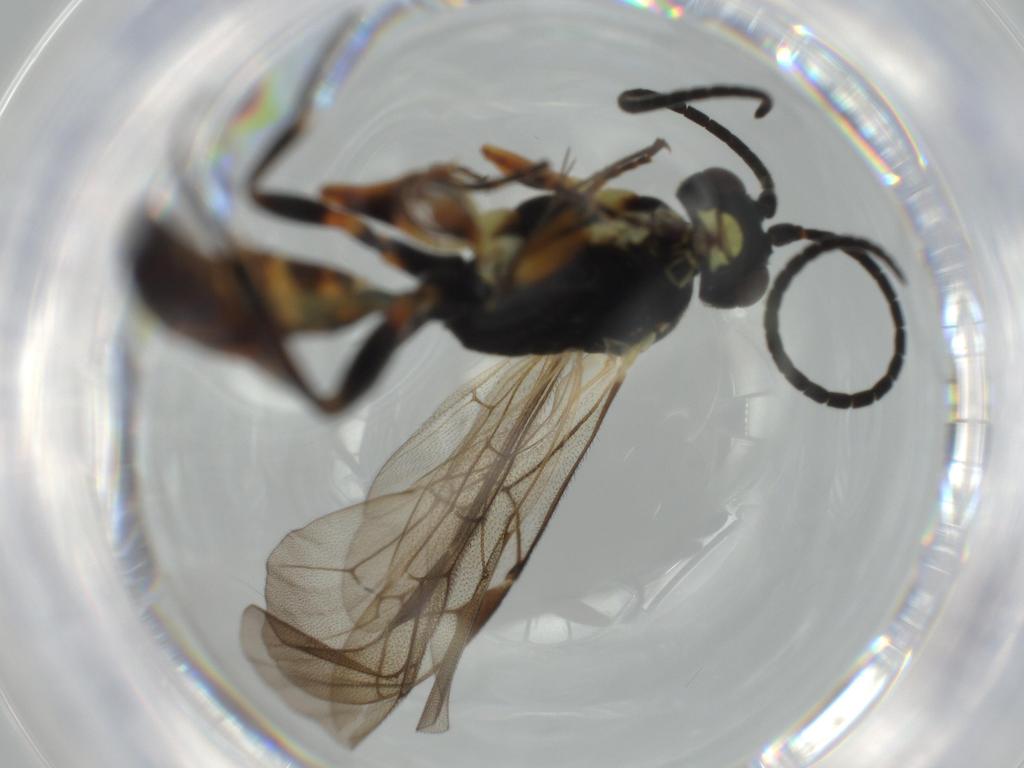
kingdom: Animalia
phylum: Arthropoda
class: Insecta
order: Hymenoptera
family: Ichneumonidae
